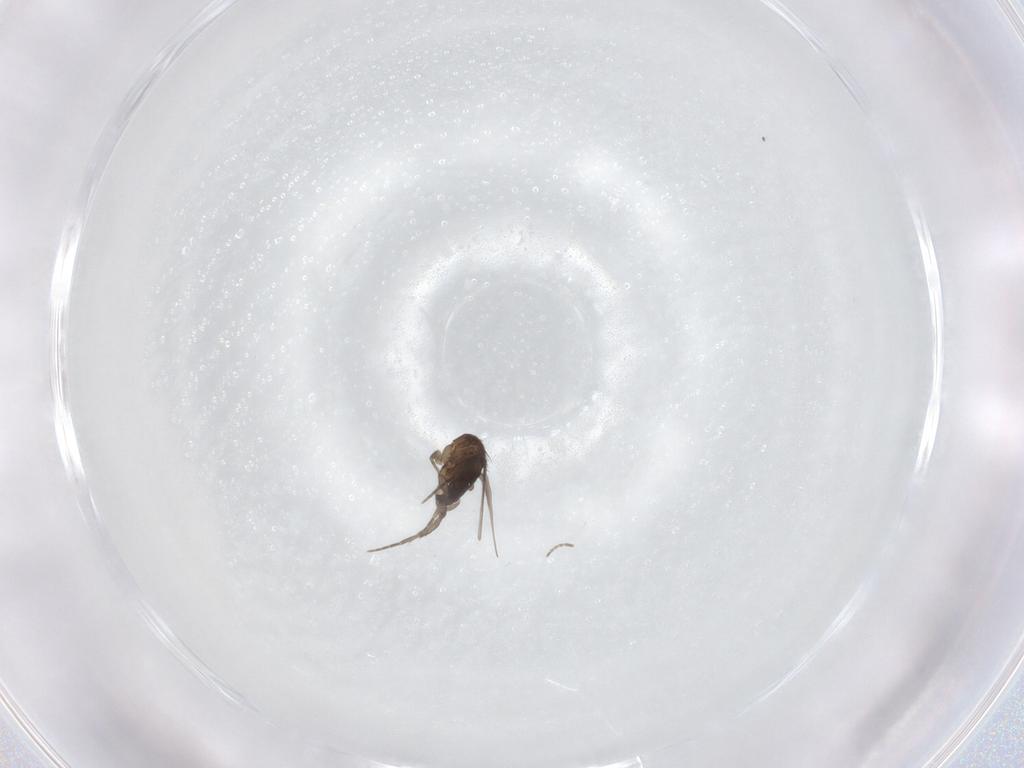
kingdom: Animalia
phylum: Arthropoda
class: Insecta
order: Diptera
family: Phoridae
